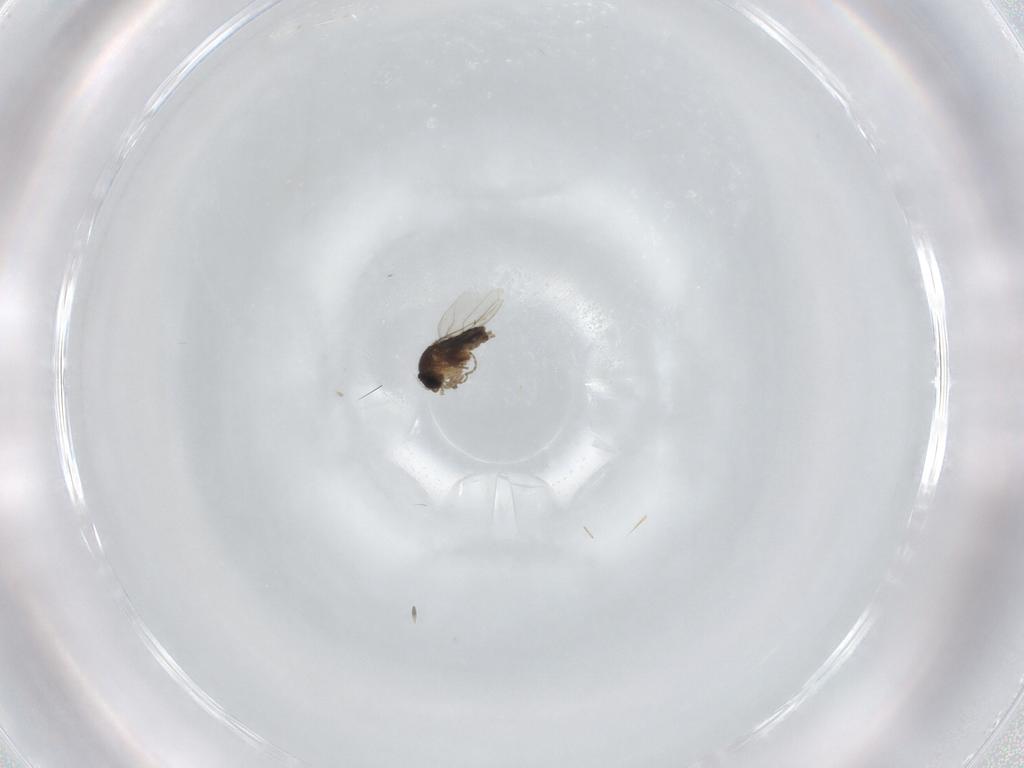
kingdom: Animalia
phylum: Arthropoda
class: Insecta
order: Diptera
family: Phoridae
